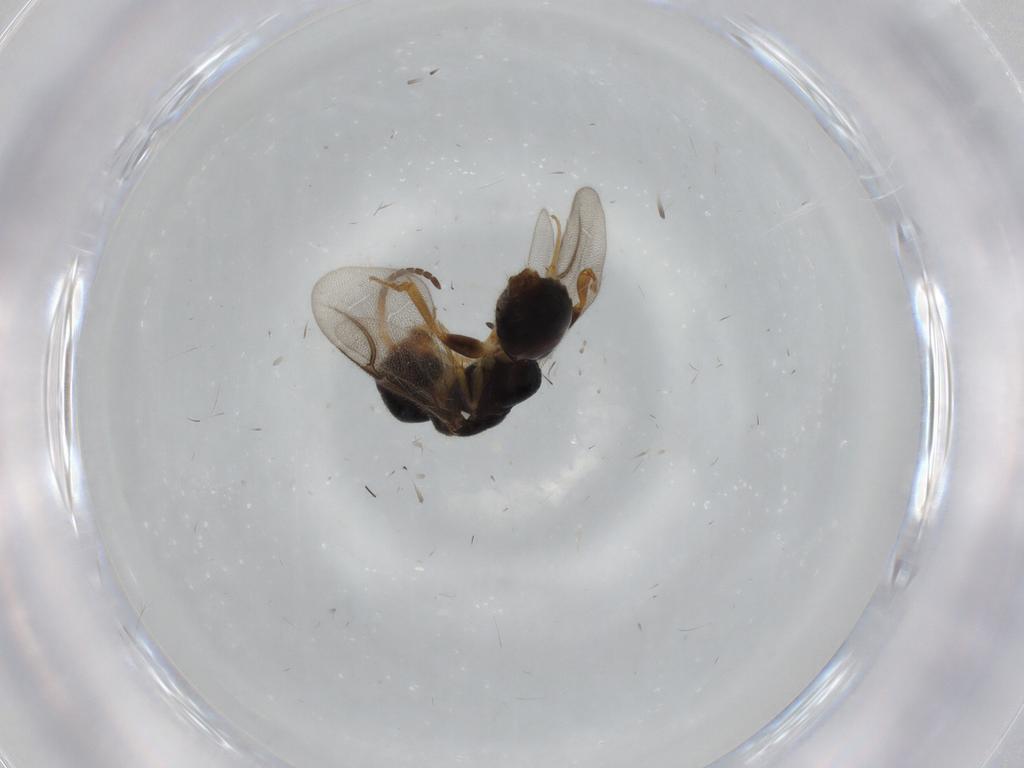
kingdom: Animalia
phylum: Arthropoda
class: Insecta
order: Hymenoptera
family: Bethylidae
